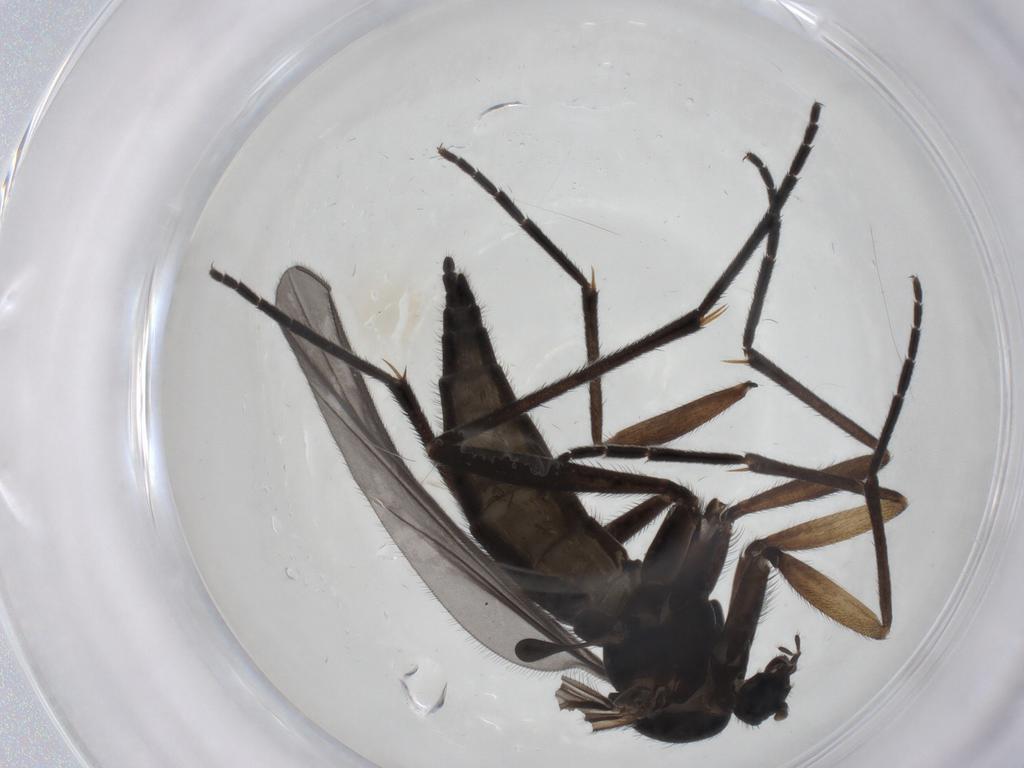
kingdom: Animalia
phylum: Arthropoda
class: Insecta
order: Diptera
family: Sciaridae
